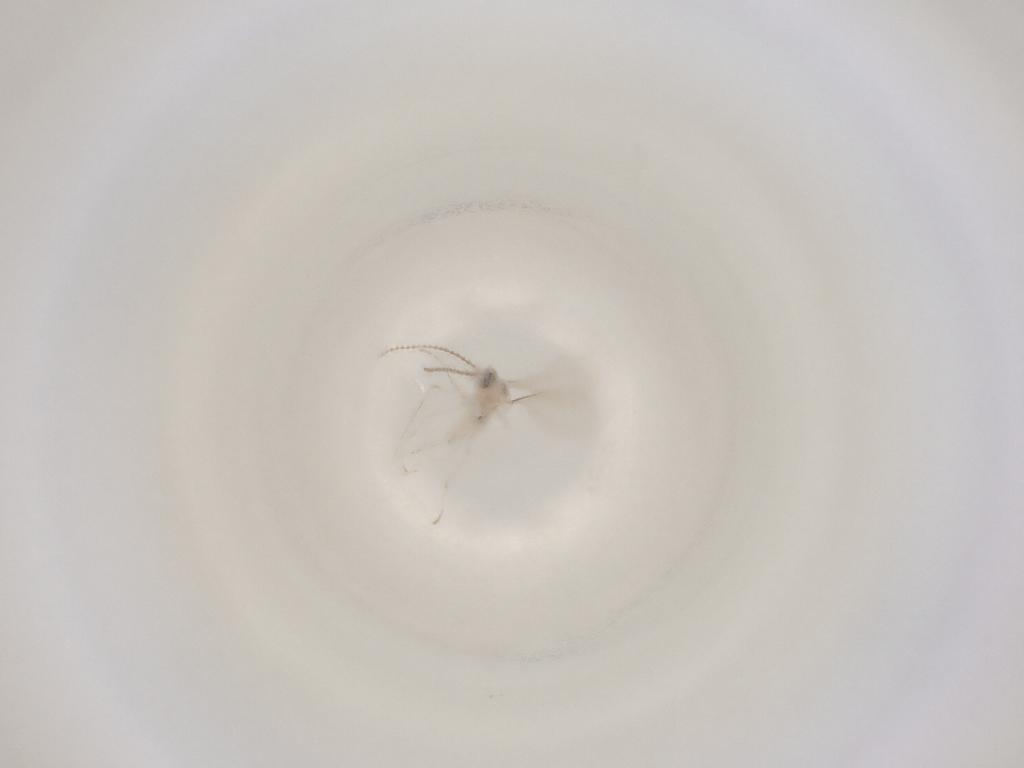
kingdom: Animalia
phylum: Arthropoda
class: Insecta
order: Diptera
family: Cecidomyiidae
